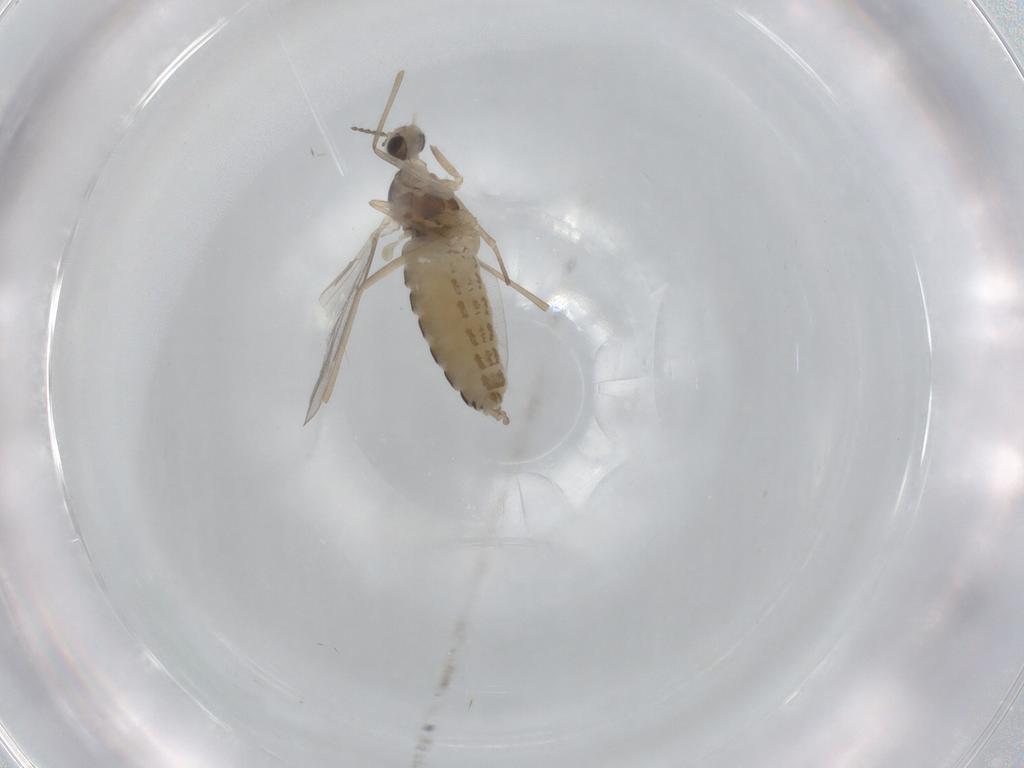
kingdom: Animalia
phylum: Arthropoda
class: Insecta
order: Diptera
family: Cecidomyiidae
